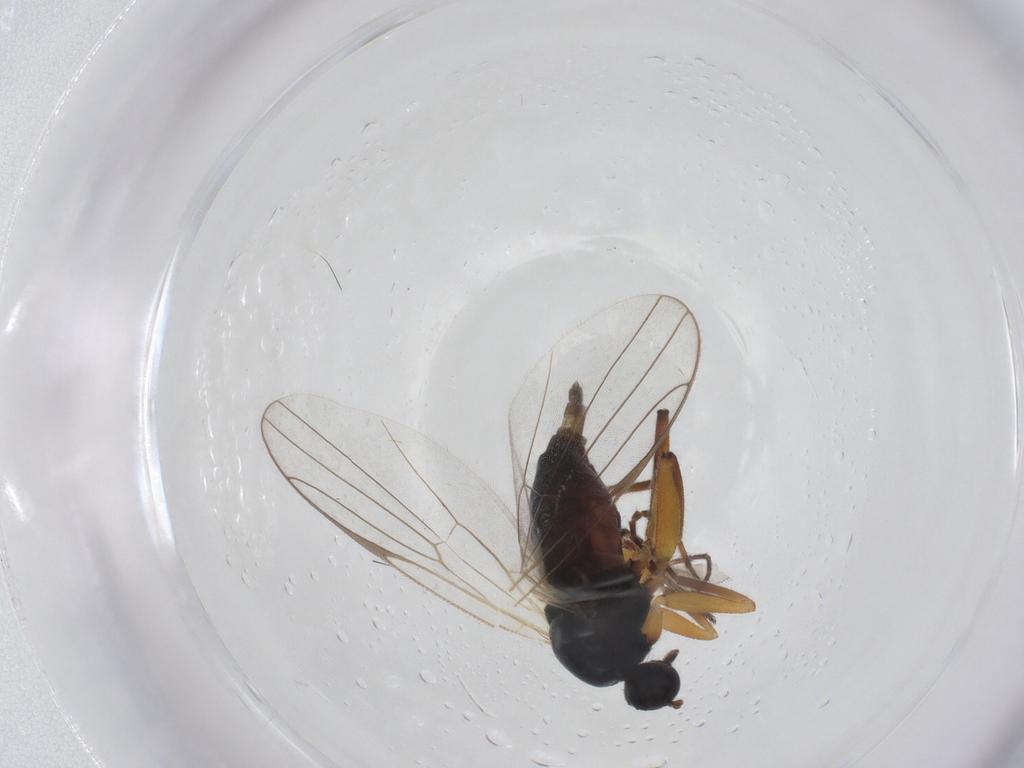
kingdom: Animalia
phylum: Arthropoda
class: Insecta
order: Diptera
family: Hybotidae
